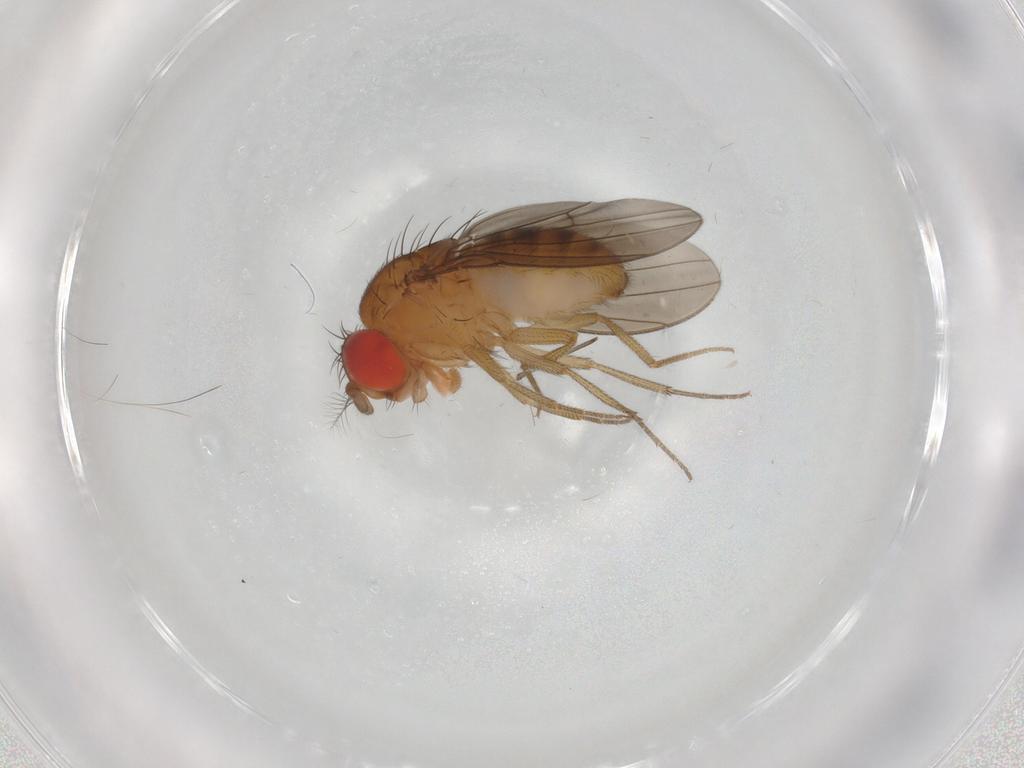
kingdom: Animalia
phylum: Arthropoda
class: Insecta
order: Diptera
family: Drosophilidae
